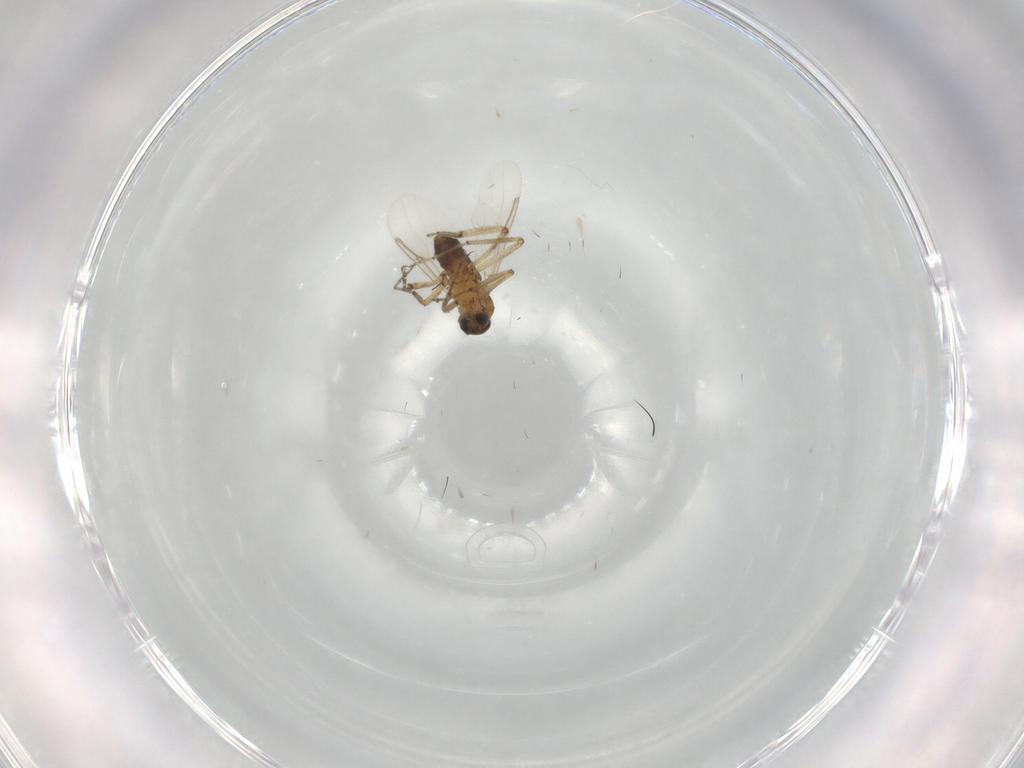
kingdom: Animalia
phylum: Arthropoda
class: Insecta
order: Diptera
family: Ceratopogonidae
